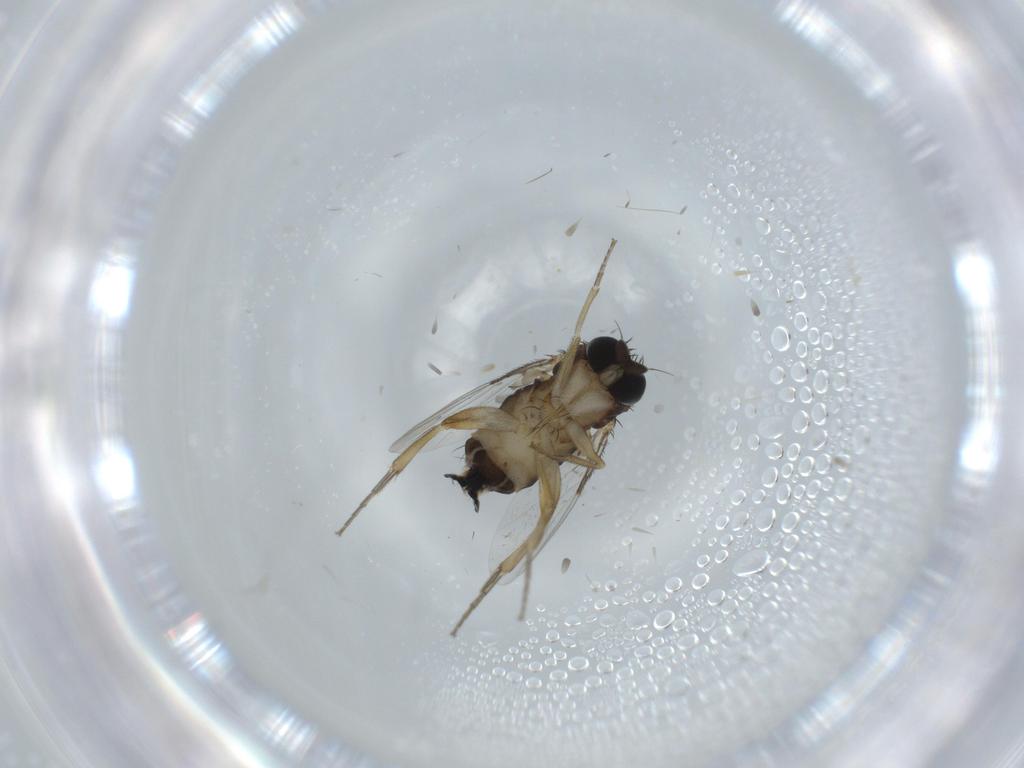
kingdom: Animalia
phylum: Arthropoda
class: Insecta
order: Diptera
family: Phoridae
